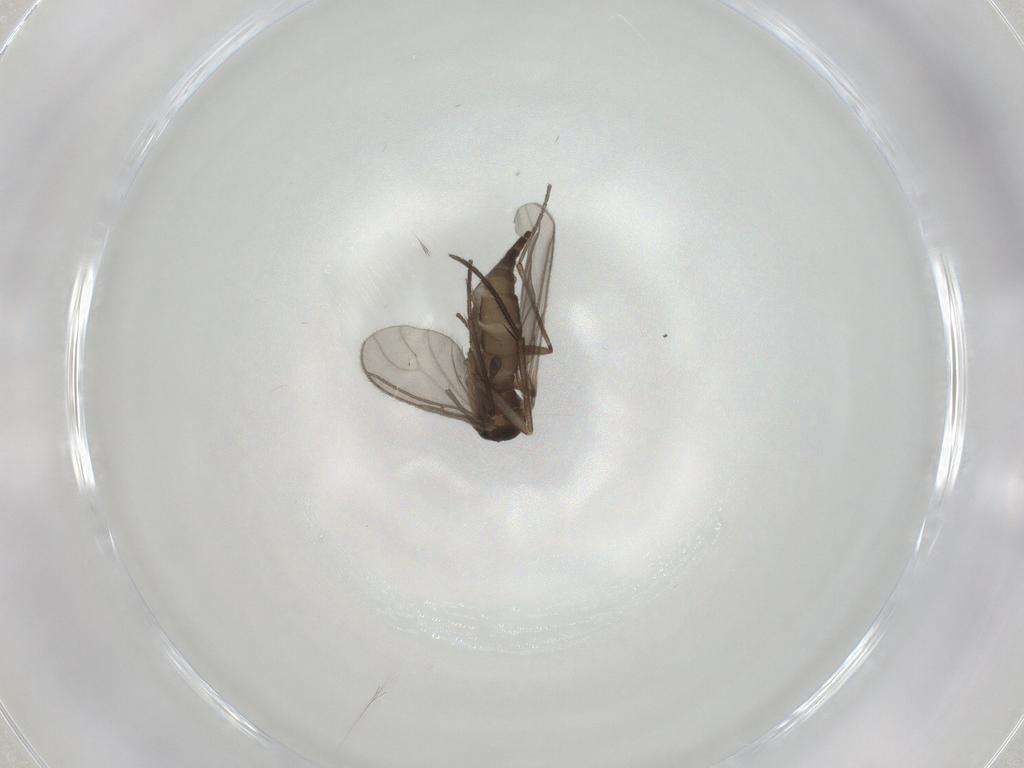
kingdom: Animalia
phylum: Arthropoda
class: Insecta
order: Diptera
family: Keroplatidae
